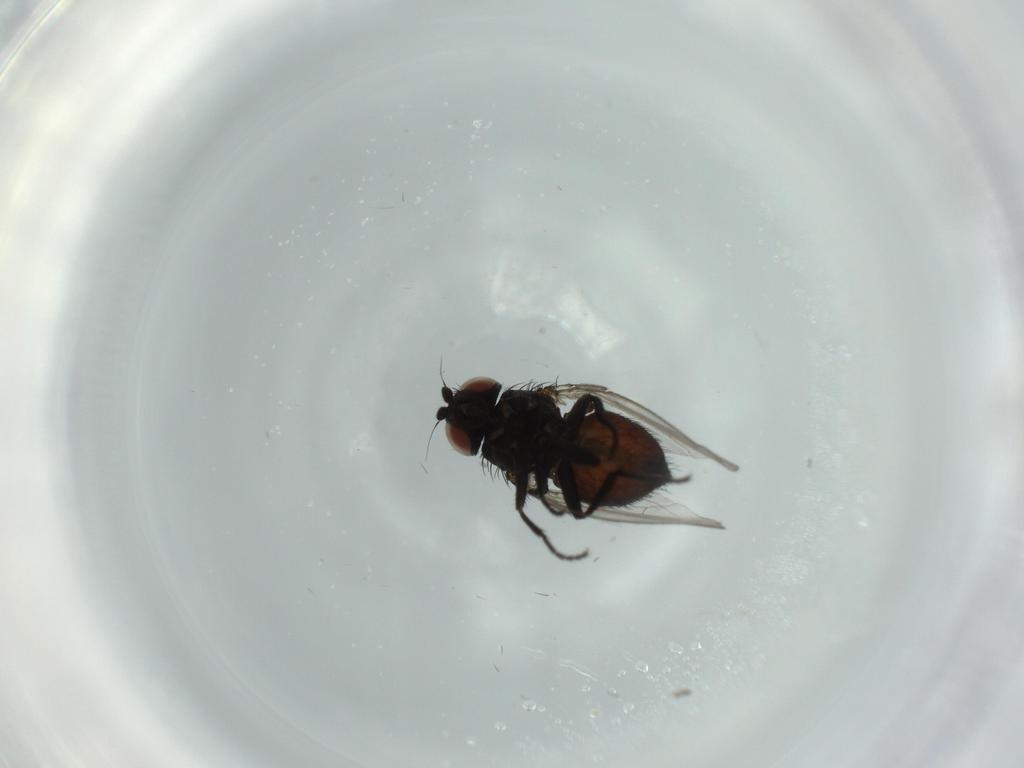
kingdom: Animalia
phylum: Arthropoda
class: Insecta
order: Diptera
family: Milichiidae
